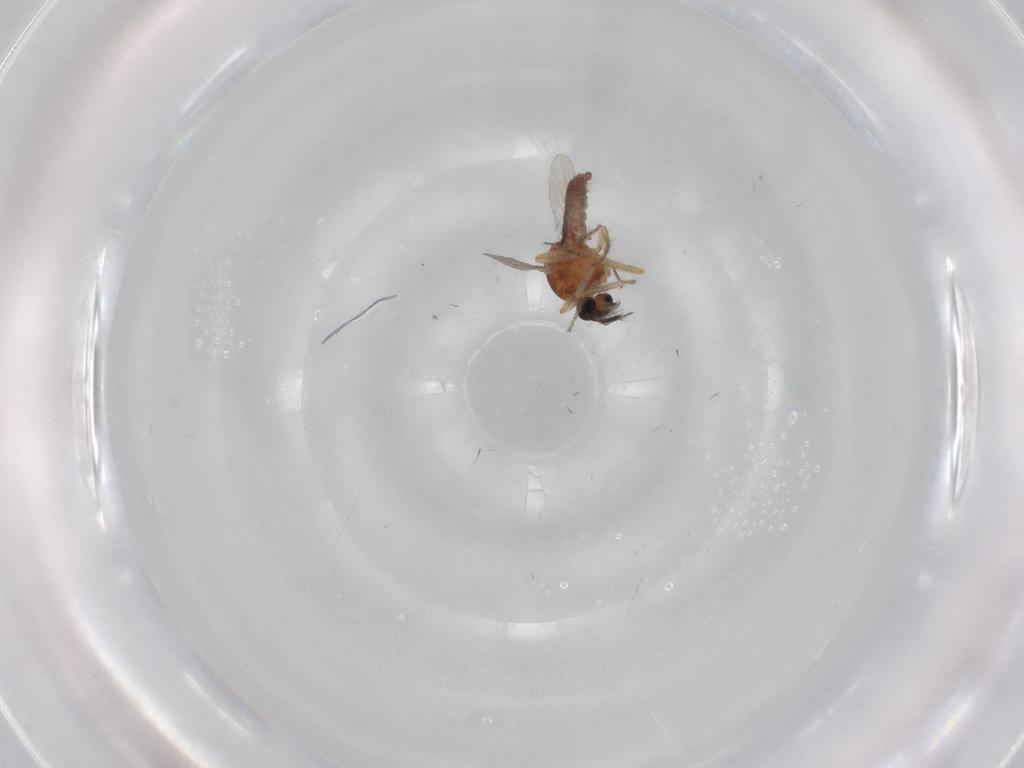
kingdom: Animalia
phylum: Arthropoda
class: Insecta
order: Diptera
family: Ceratopogonidae
